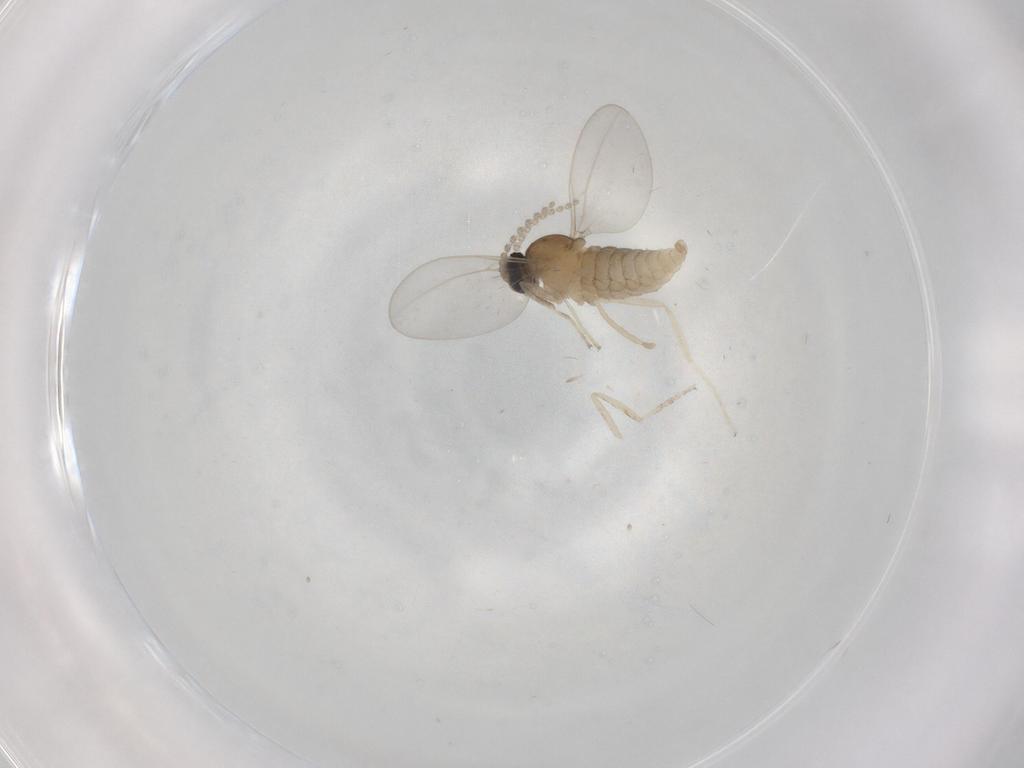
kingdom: Animalia
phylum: Arthropoda
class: Insecta
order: Diptera
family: Cecidomyiidae
